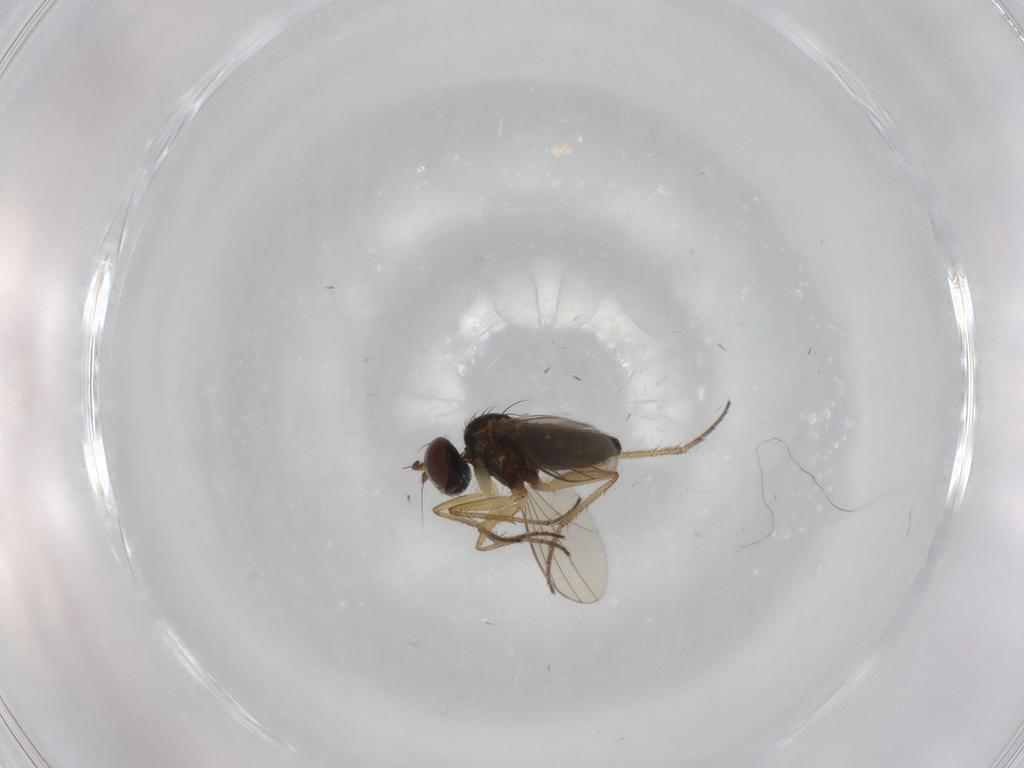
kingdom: Animalia
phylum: Arthropoda
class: Insecta
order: Diptera
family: Dolichopodidae
